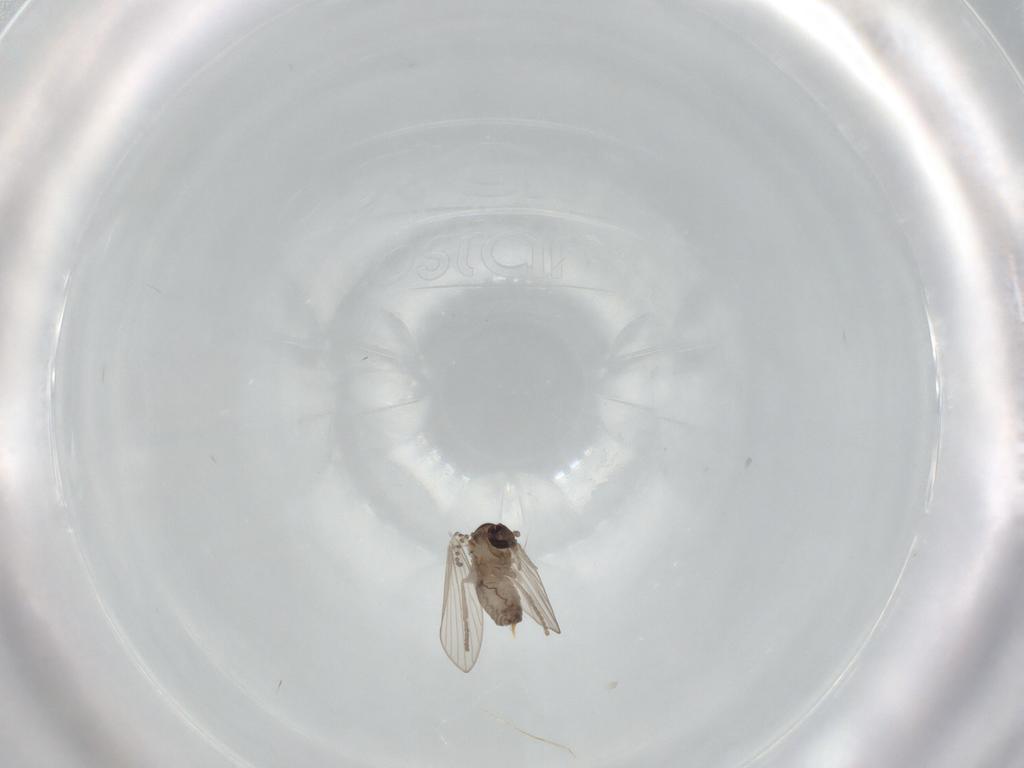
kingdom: Animalia
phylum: Arthropoda
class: Insecta
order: Diptera
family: Psychodidae
